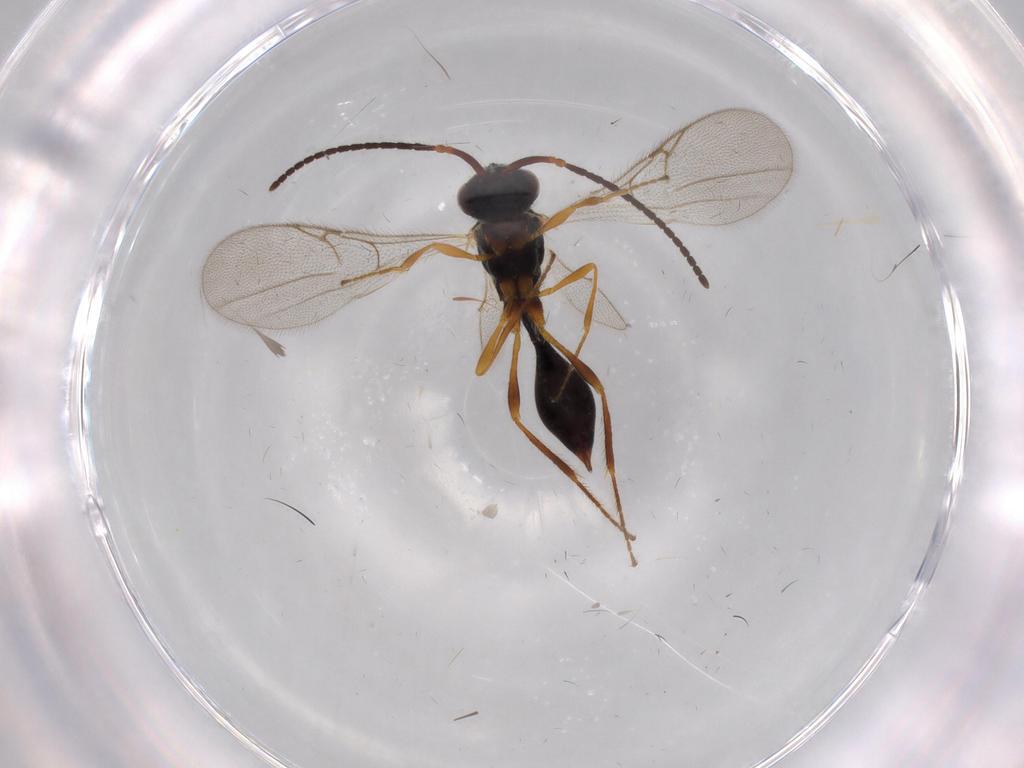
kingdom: Animalia
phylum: Arthropoda
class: Insecta
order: Hymenoptera
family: Diapriidae
